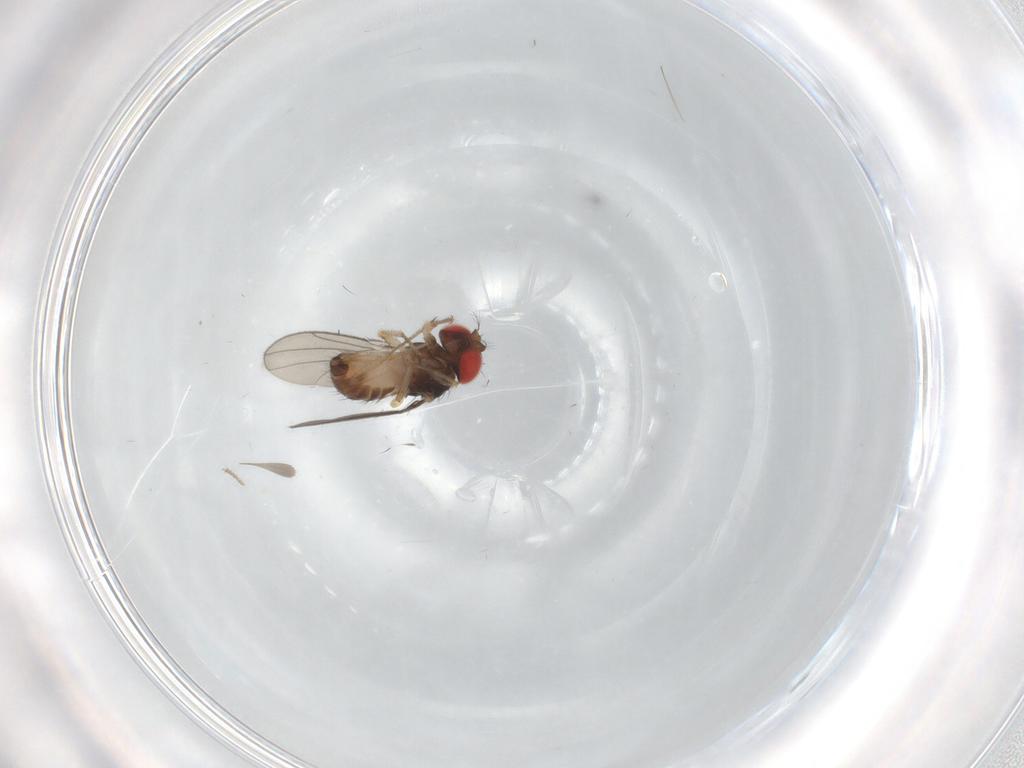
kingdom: Animalia
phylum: Arthropoda
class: Insecta
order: Diptera
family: Drosophilidae
